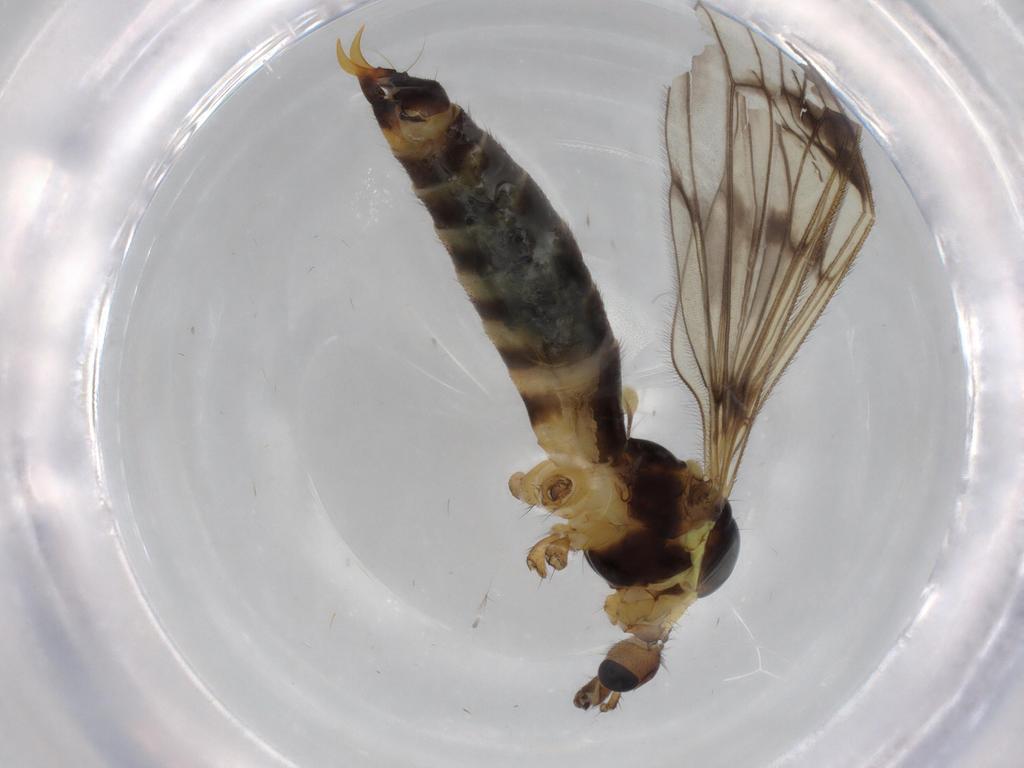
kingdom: Animalia
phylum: Arthropoda
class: Insecta
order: Diptera
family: Limoniidae
